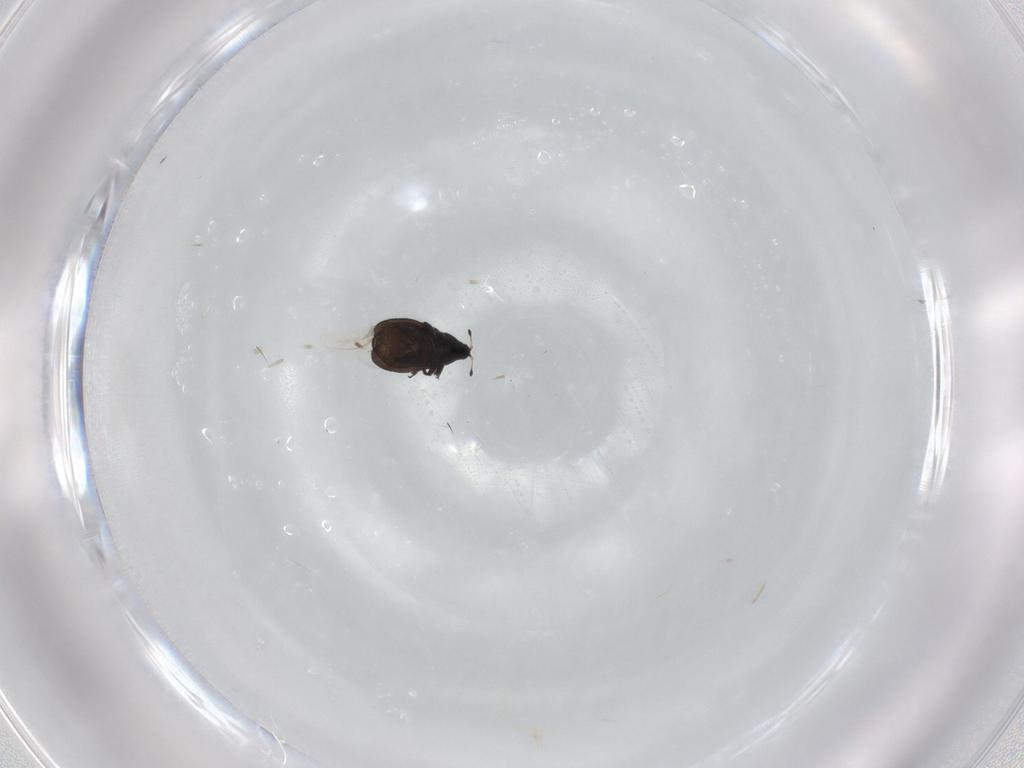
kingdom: Animalia
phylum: Arthropoda
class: Insecta
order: Coleoptera
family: Curculionidae
